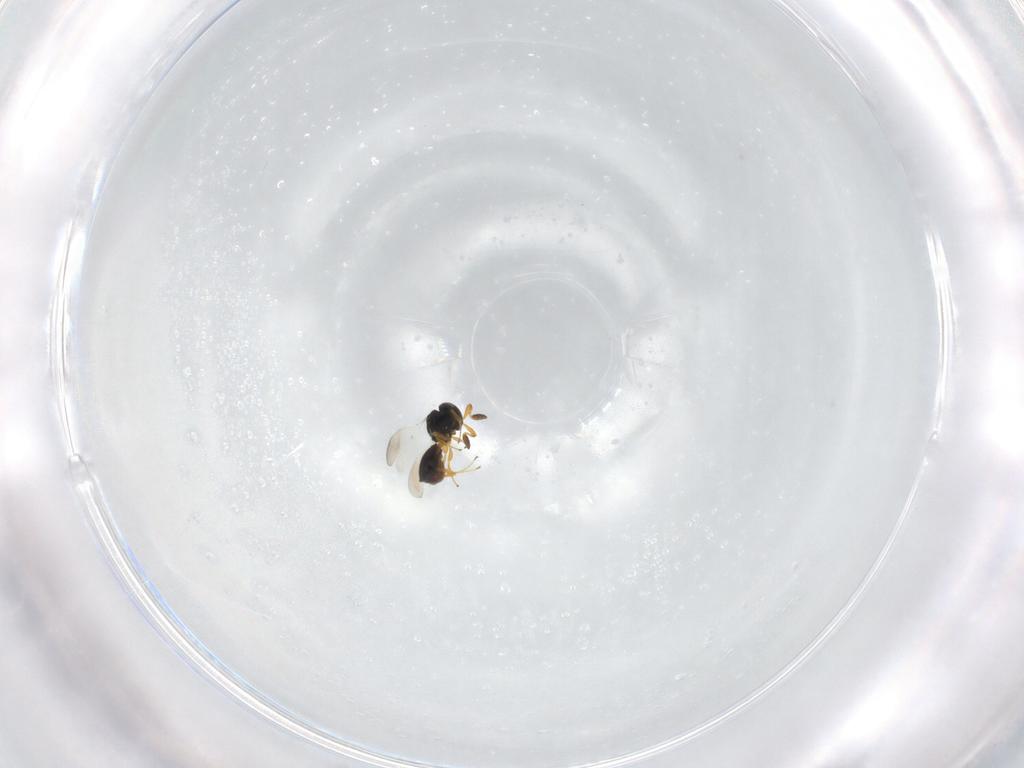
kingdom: Animalia
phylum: Arthropoda
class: Insecta
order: Hymenoptera
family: Platygastridae
